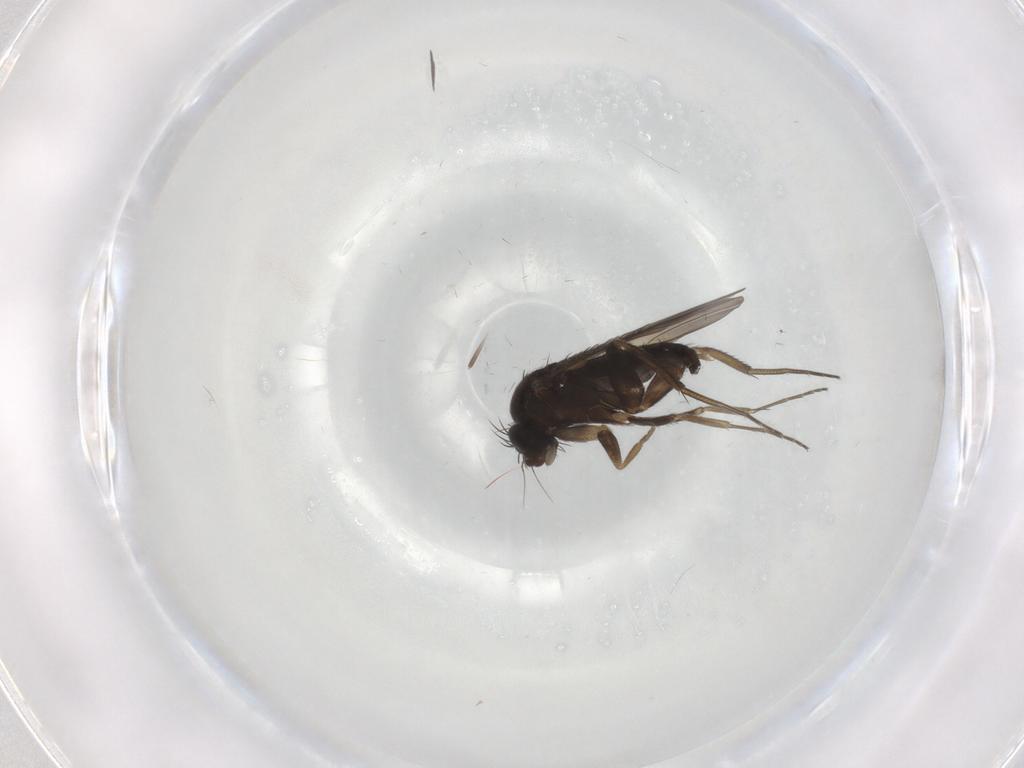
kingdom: Animalia
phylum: Arthropoda
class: Insecta
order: Diptera
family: Phoridae
